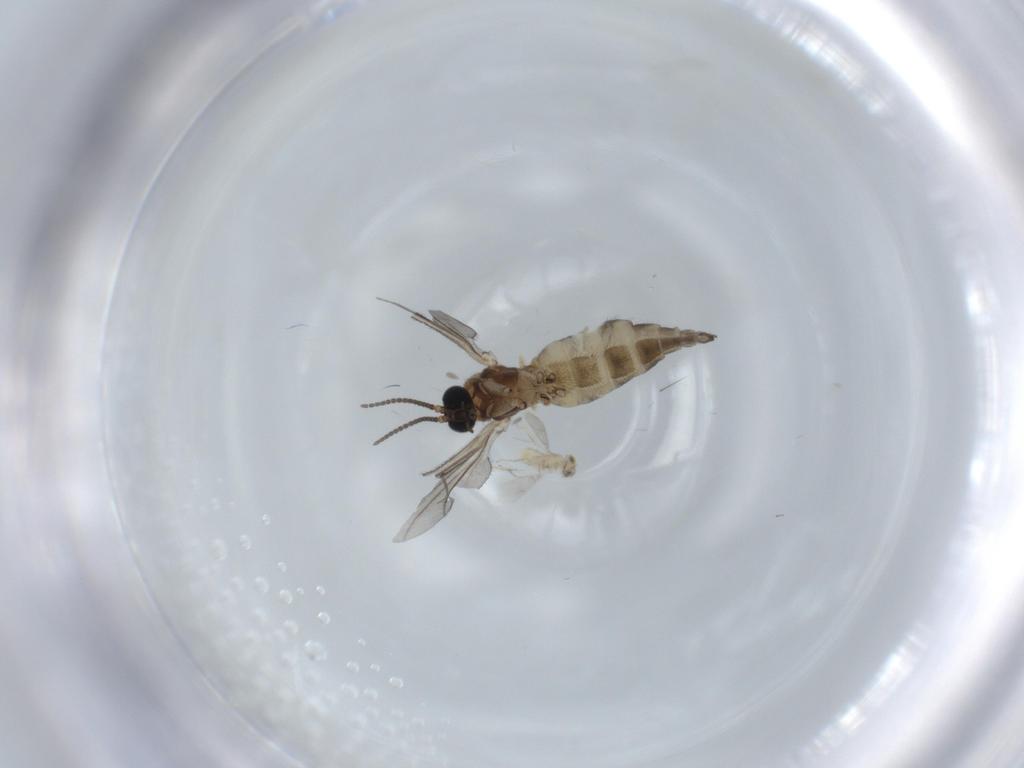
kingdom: Animalia
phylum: Arthropoda
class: Insecta
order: Diptera
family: Sciaridae
